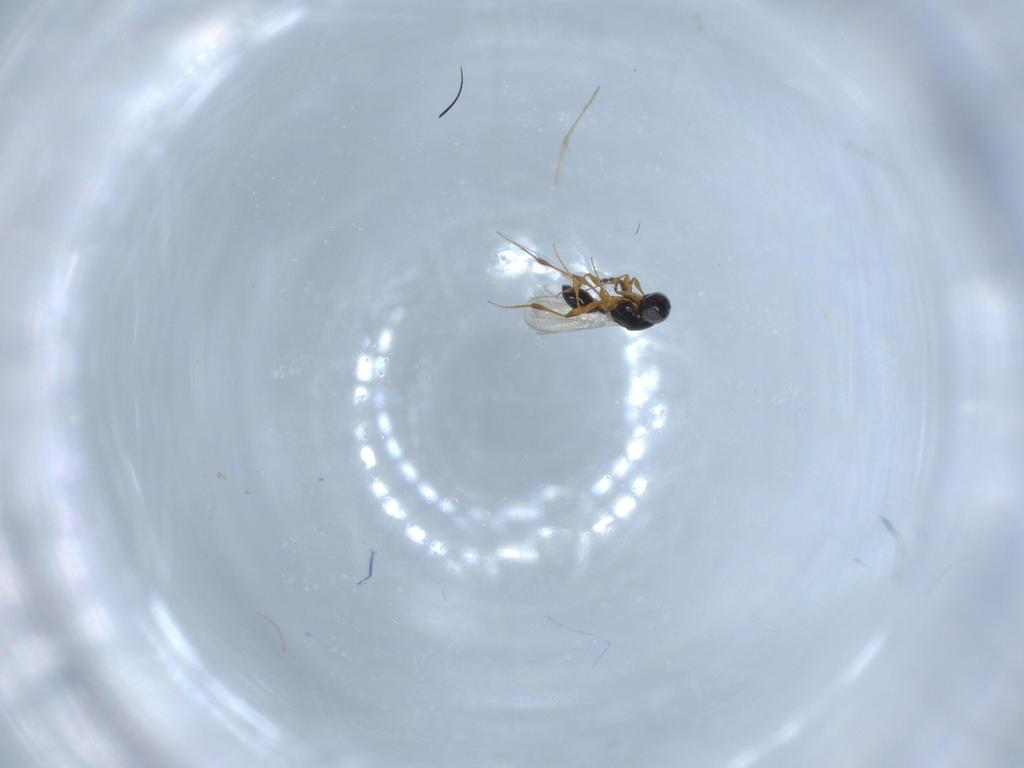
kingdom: Animalia
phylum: Arthropoda
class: Insecta
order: Hymenoptera
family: Platygastridae
